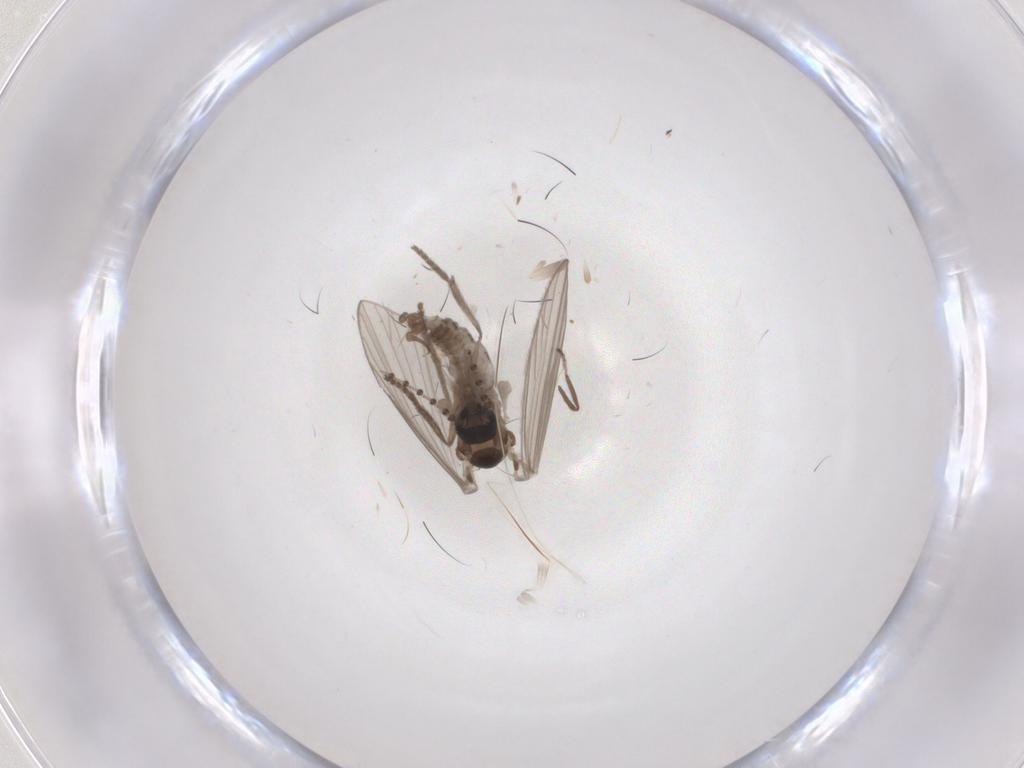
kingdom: Animalia
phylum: Arthropoda
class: Insecta
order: Diptera
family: Psychodidae
